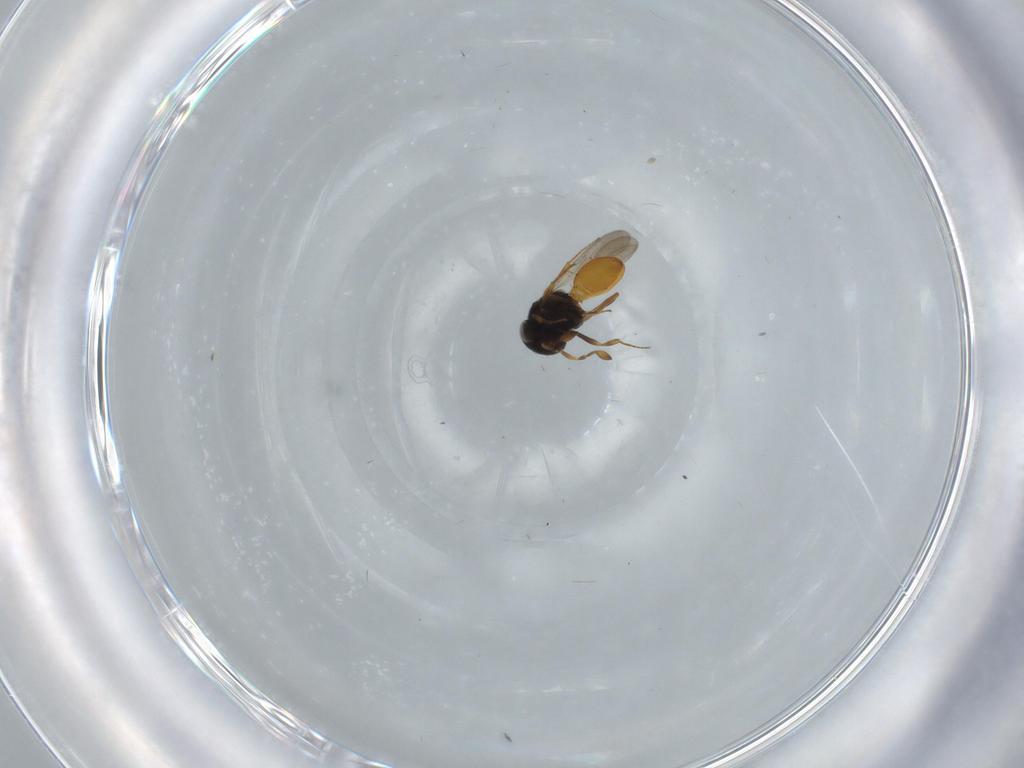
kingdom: Animalia
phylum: Arthropoda
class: Insecta
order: Hymenoptera
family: Scelionidae
